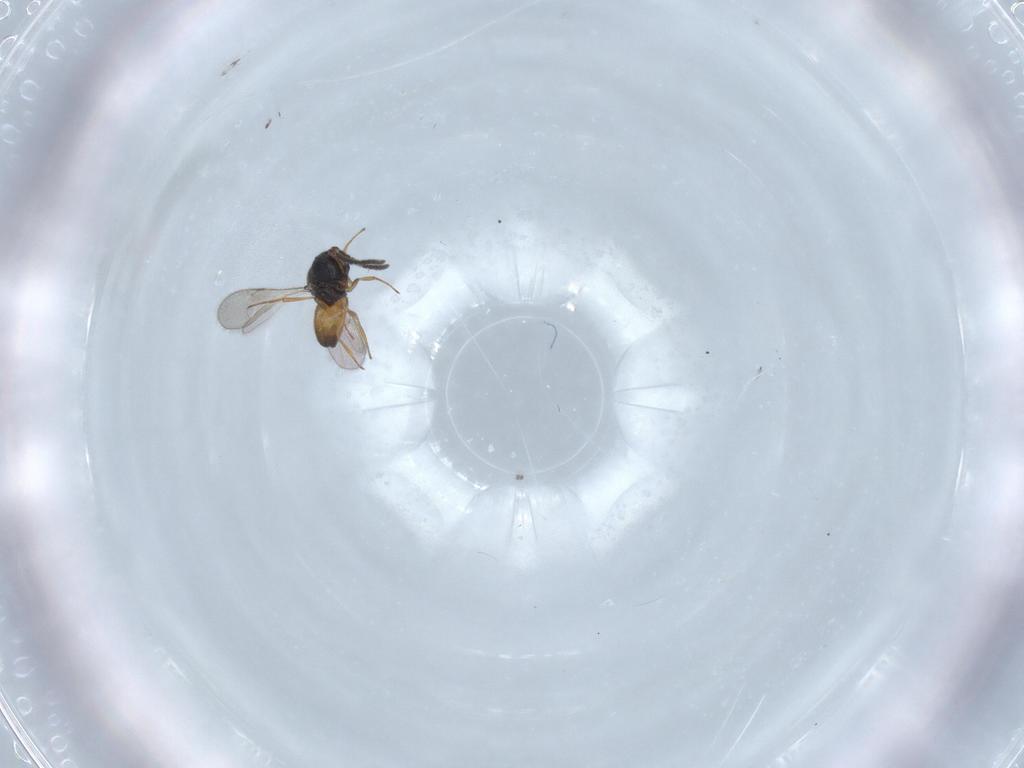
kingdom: Animalia
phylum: Arthropoda
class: Insecta
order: Hymenoptera
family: Scelionidae
